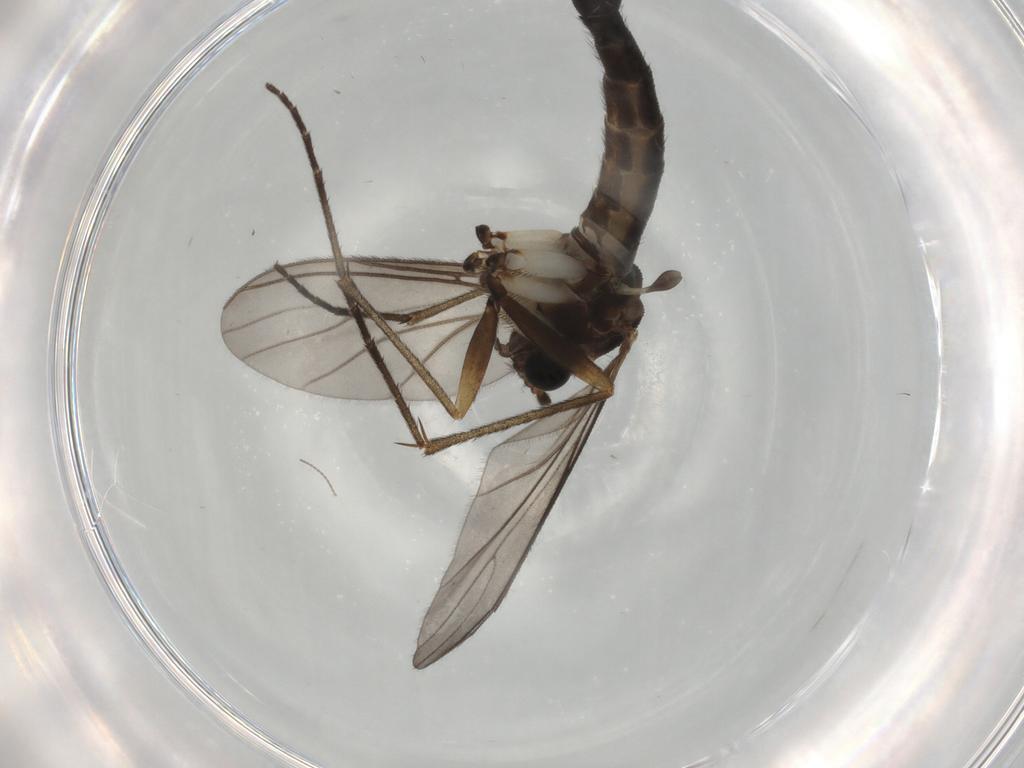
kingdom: Animalia
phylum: Arthropoda
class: Insecta
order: Diptera
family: Sciaridae
